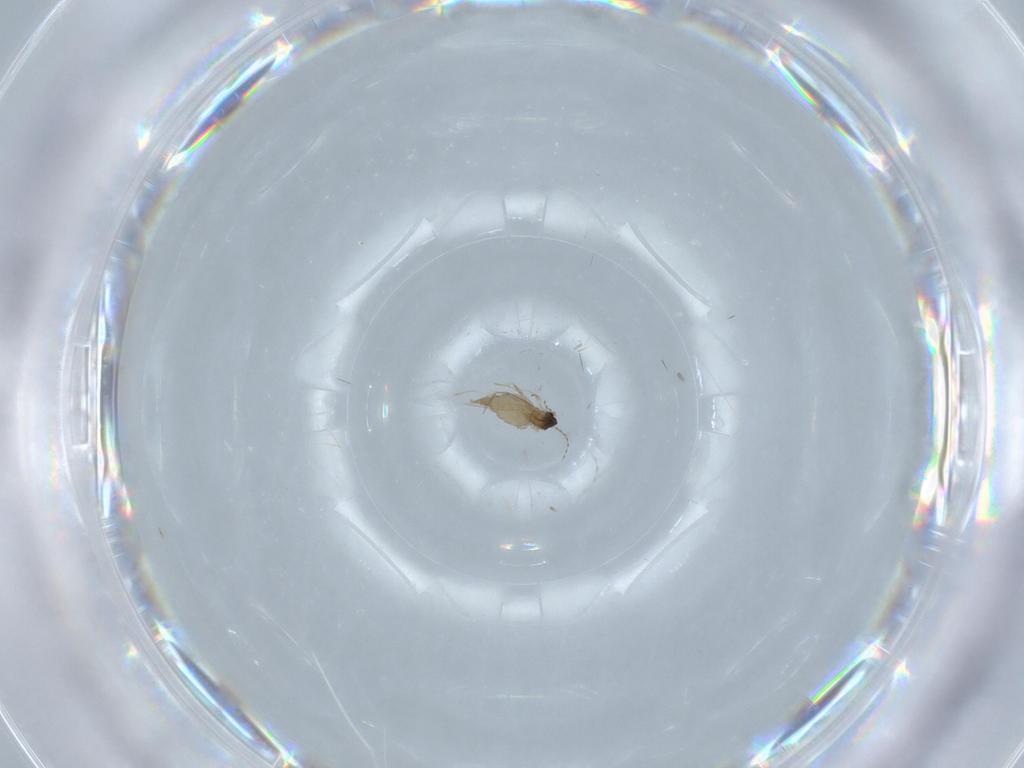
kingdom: Animalia
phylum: Arthropoda
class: Insecta
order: Diptera
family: Cecidomyiidae
